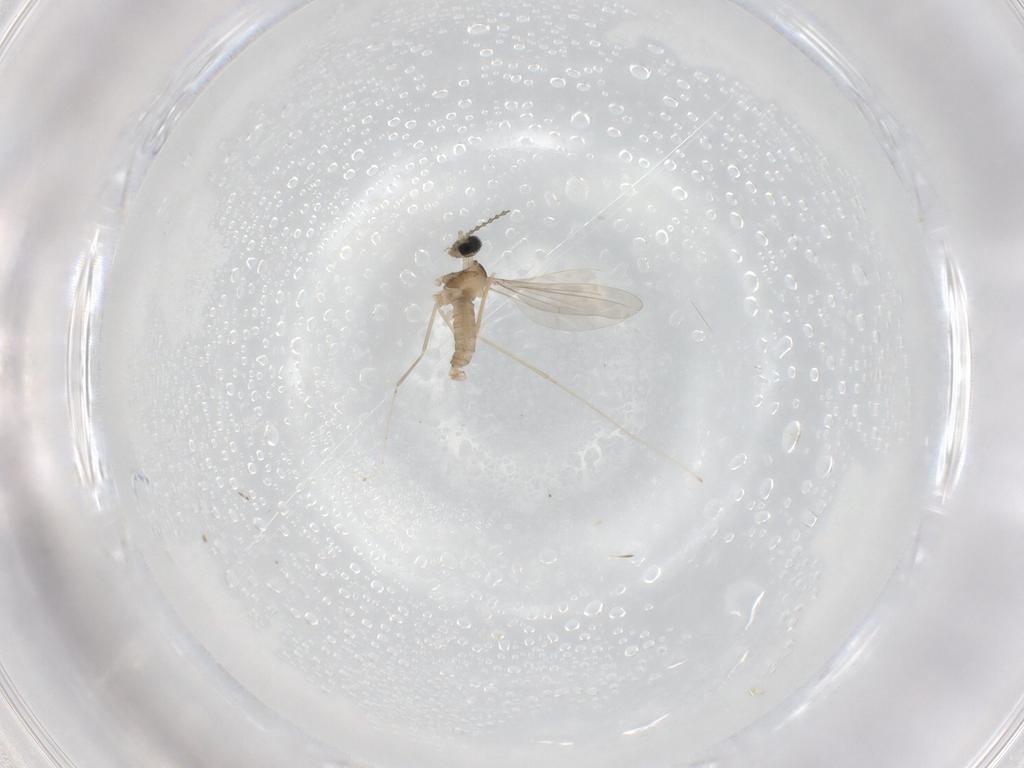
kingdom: Animalia
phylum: Arthropoda
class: Insecta
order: Diptera
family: Cecidomyiidae
